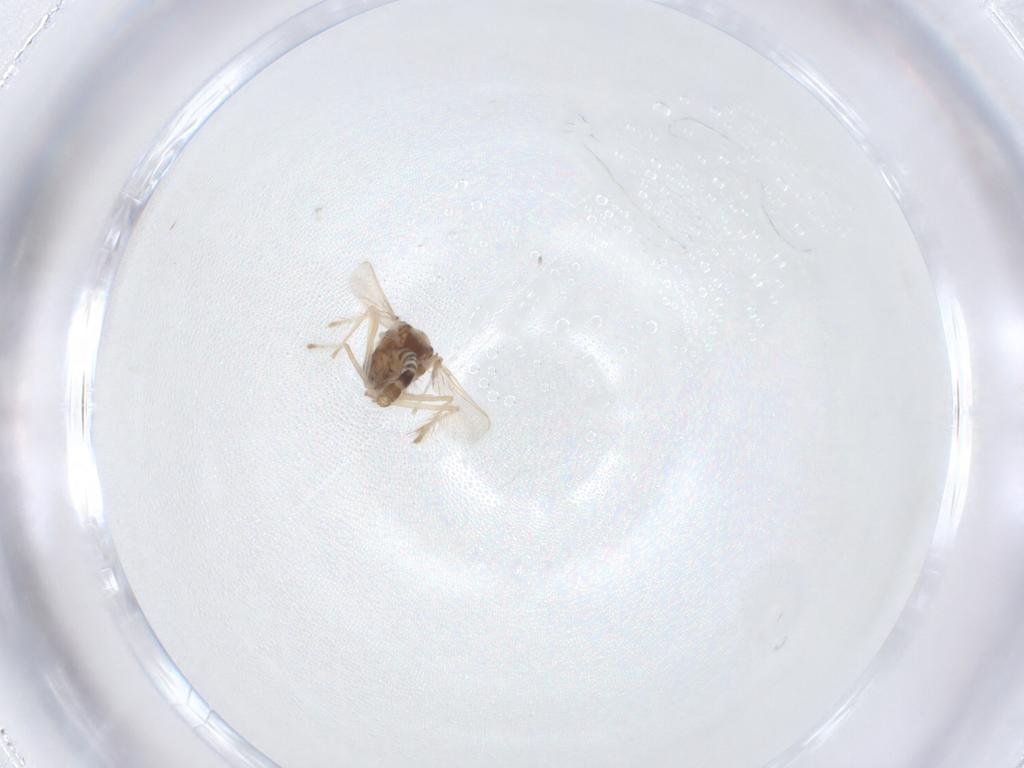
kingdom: Animalia
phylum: Arthropoda
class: Insecta
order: Diptera
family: Chironomidae
